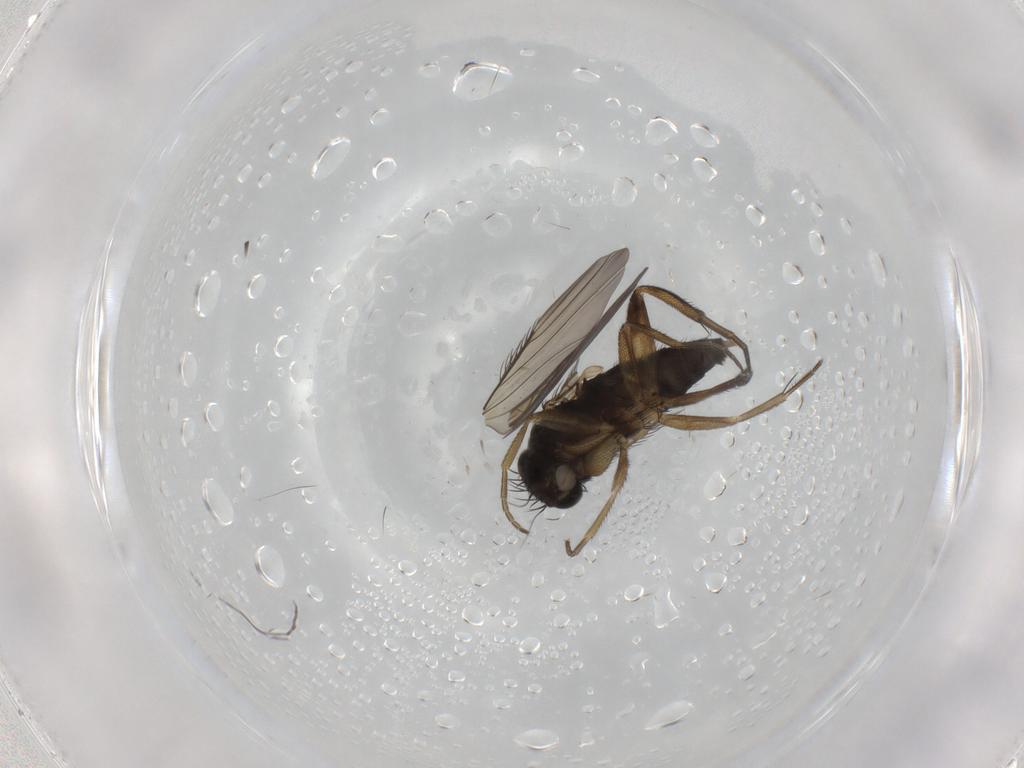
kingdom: Animalia
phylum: Arthropoda
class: Insecta
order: Diptera
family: Phoridae
